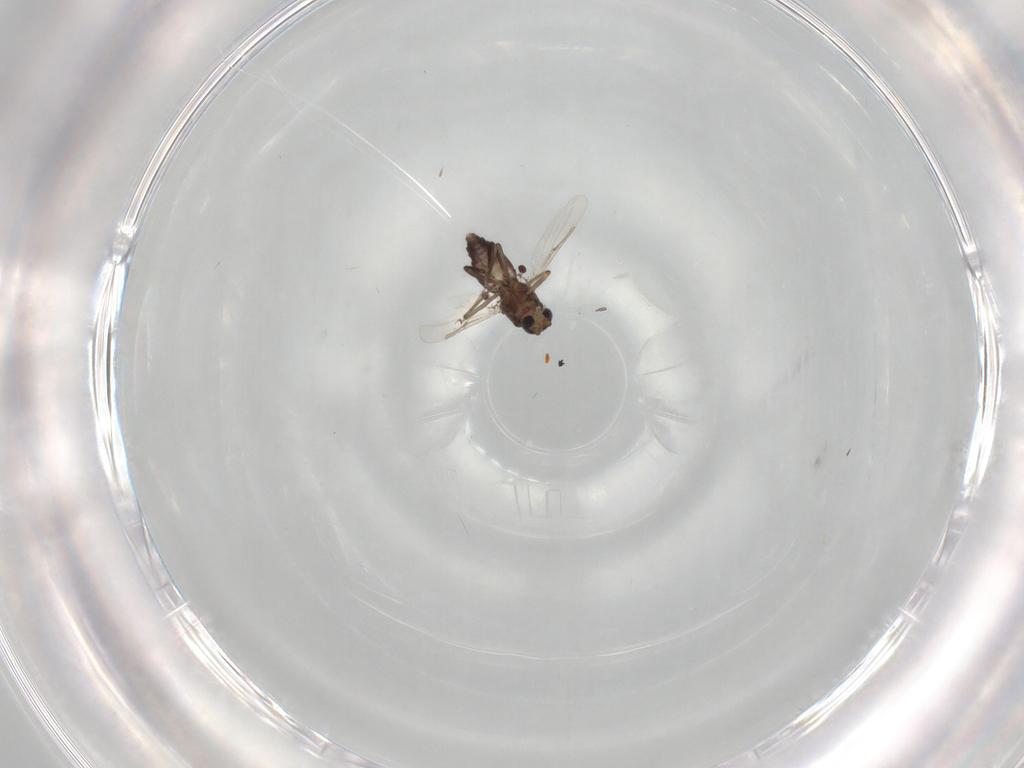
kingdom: Animalia
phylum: Arthropoda
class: Insecta
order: Diptera
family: Ceratopogonidae
